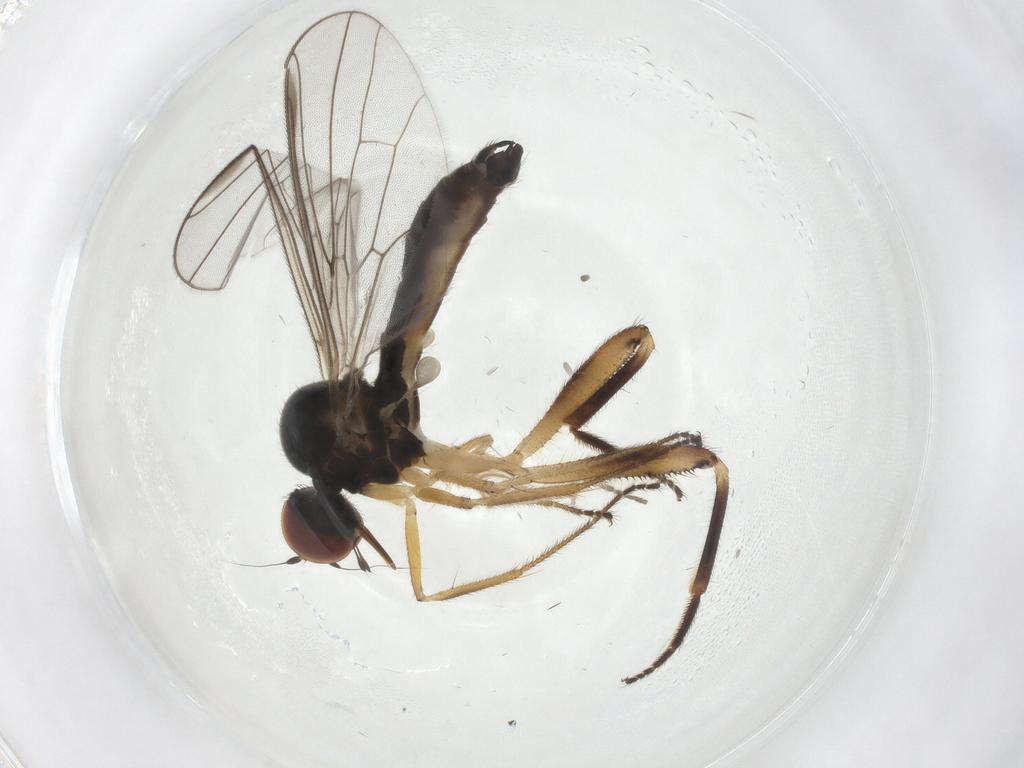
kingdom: Animalia
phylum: Arthropoda
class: Insecta
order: Diptera
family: Hybotidae
